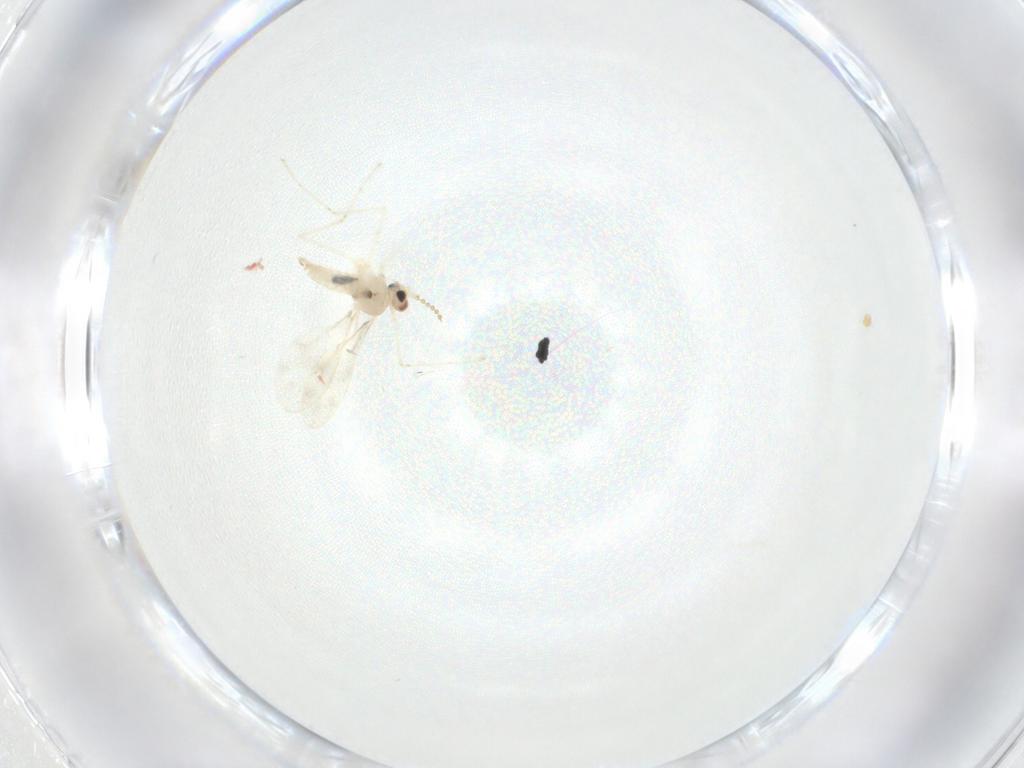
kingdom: Animalia
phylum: Arthropoda
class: Insecta
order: Diptera
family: Cecidomyiidae
